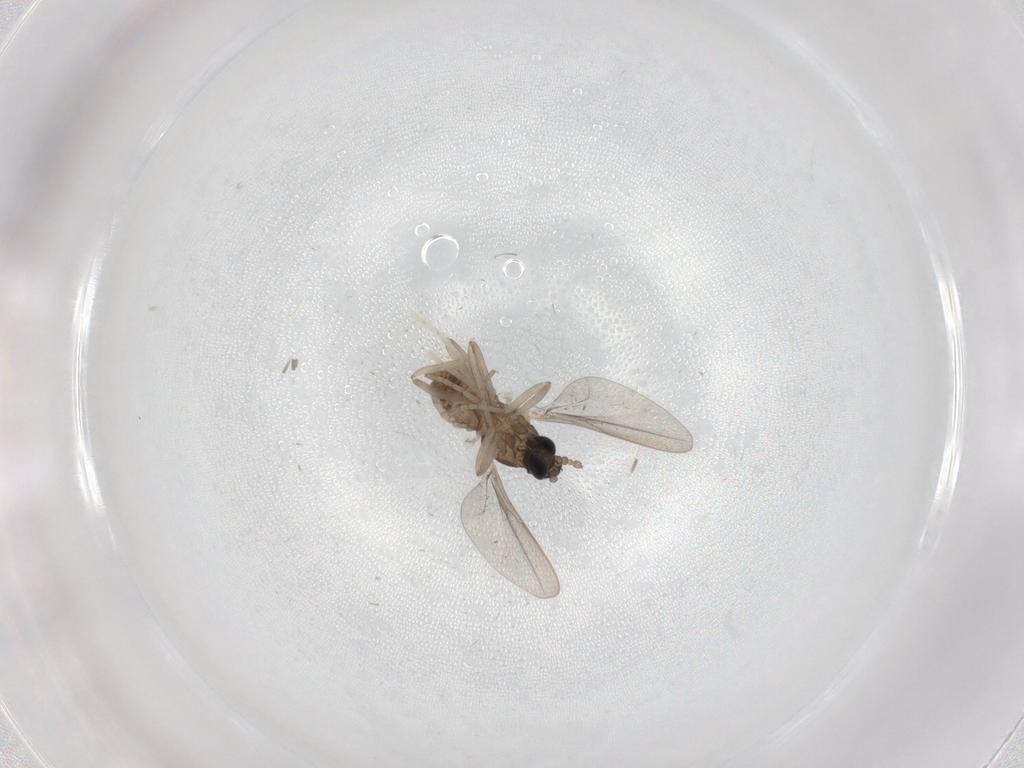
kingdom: Animalia
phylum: Arthropoda
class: Insecta
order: Diptera
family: Cecidomyiidae
